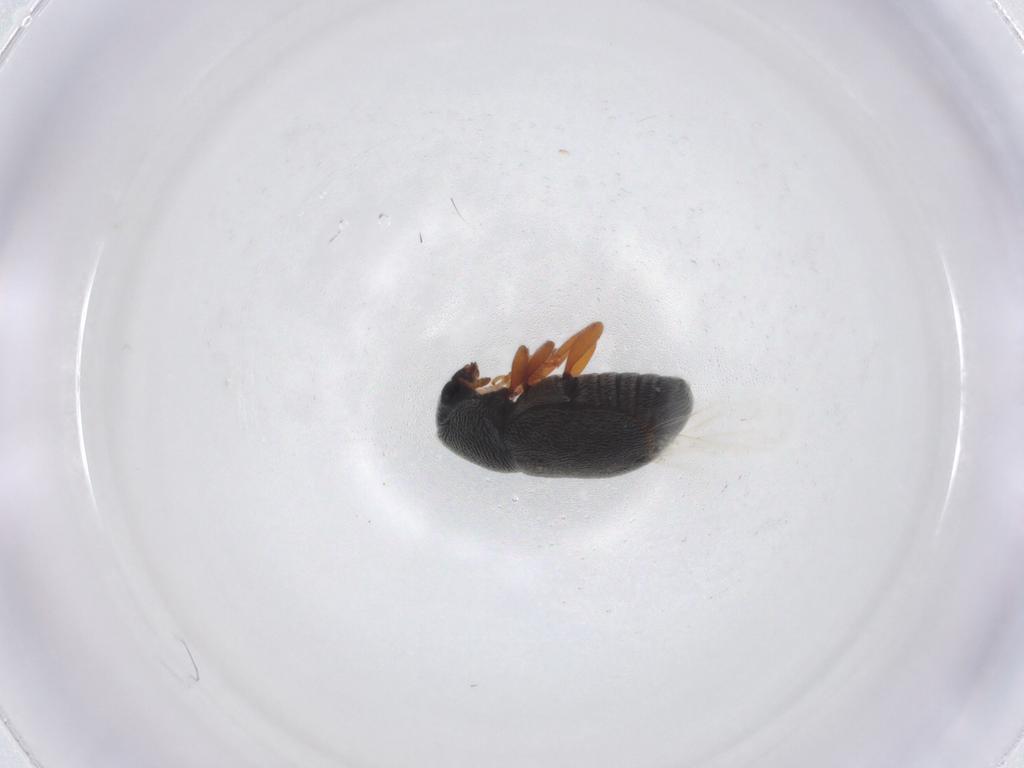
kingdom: Animalia
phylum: Arthropoda
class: Insecta
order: Coleoptera
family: Anthribidae
